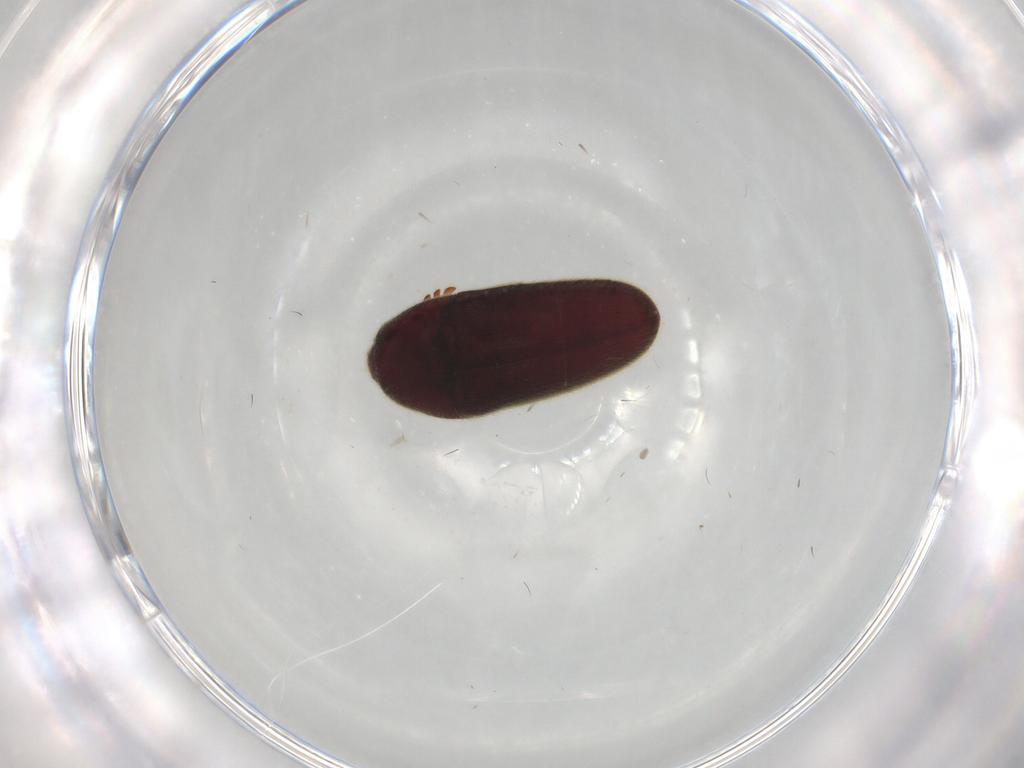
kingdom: Animalia
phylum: Arthropoda
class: Insecta
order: Coleoptera
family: Throscidae
